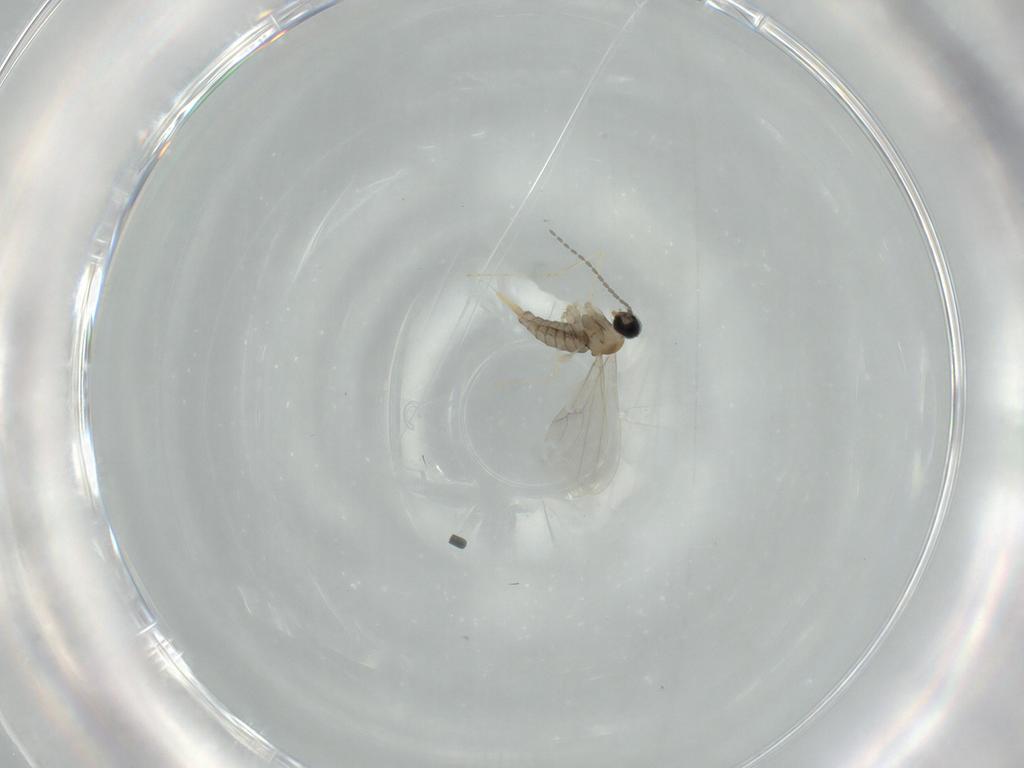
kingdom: Animalia
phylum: Arthropoda
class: Insecta
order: Diptera
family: Cecidomyiidae
